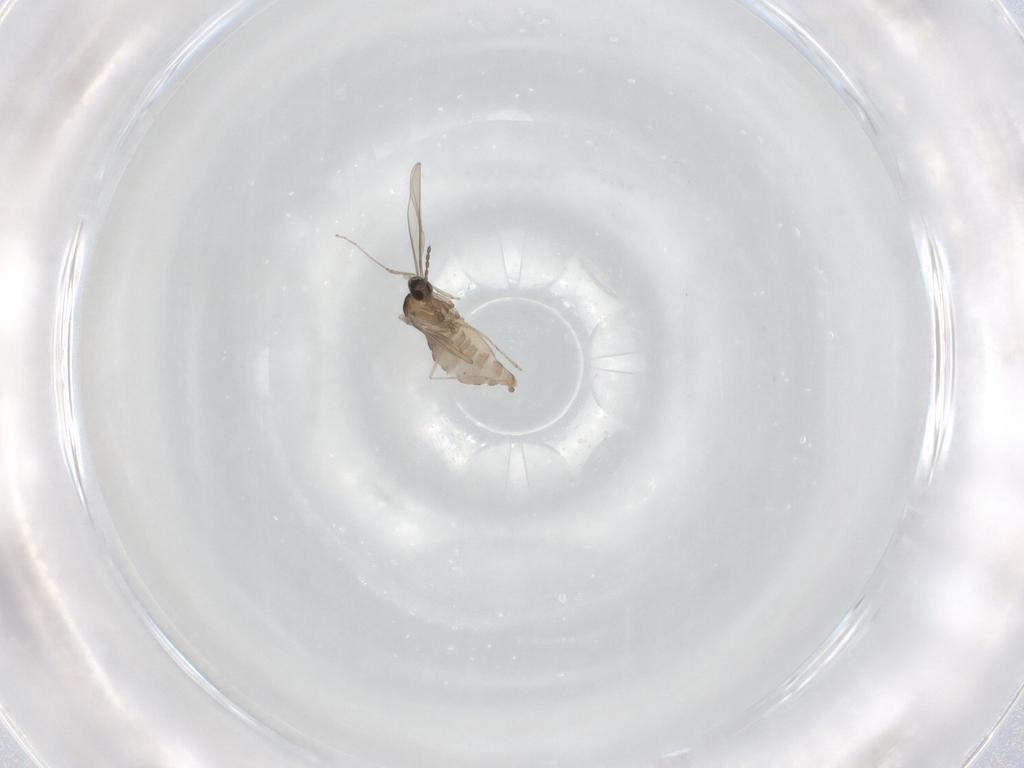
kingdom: Animalia
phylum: Arthropoda
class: Insecta
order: Diptera
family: Cecidomyiidae
